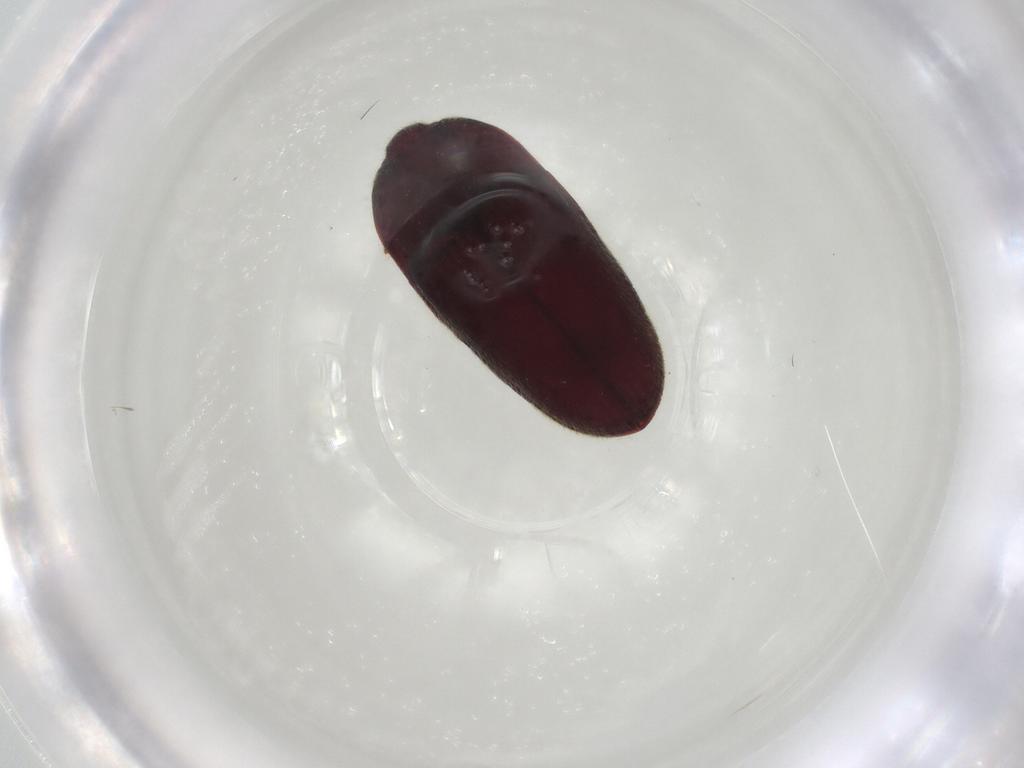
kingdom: Animalia
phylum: Arthropoda
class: Insecta
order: Coleoptera
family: Throscidae
